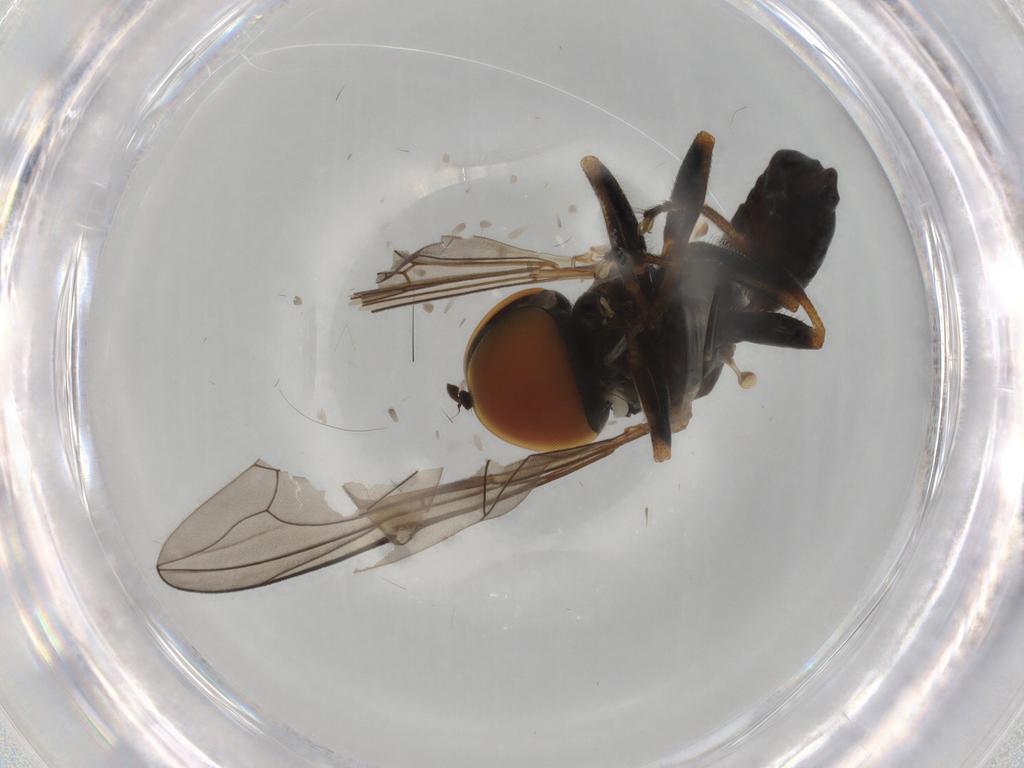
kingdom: Animalia
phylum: Arthropoda
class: Insecta
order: Diptera
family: Pipunculidae
